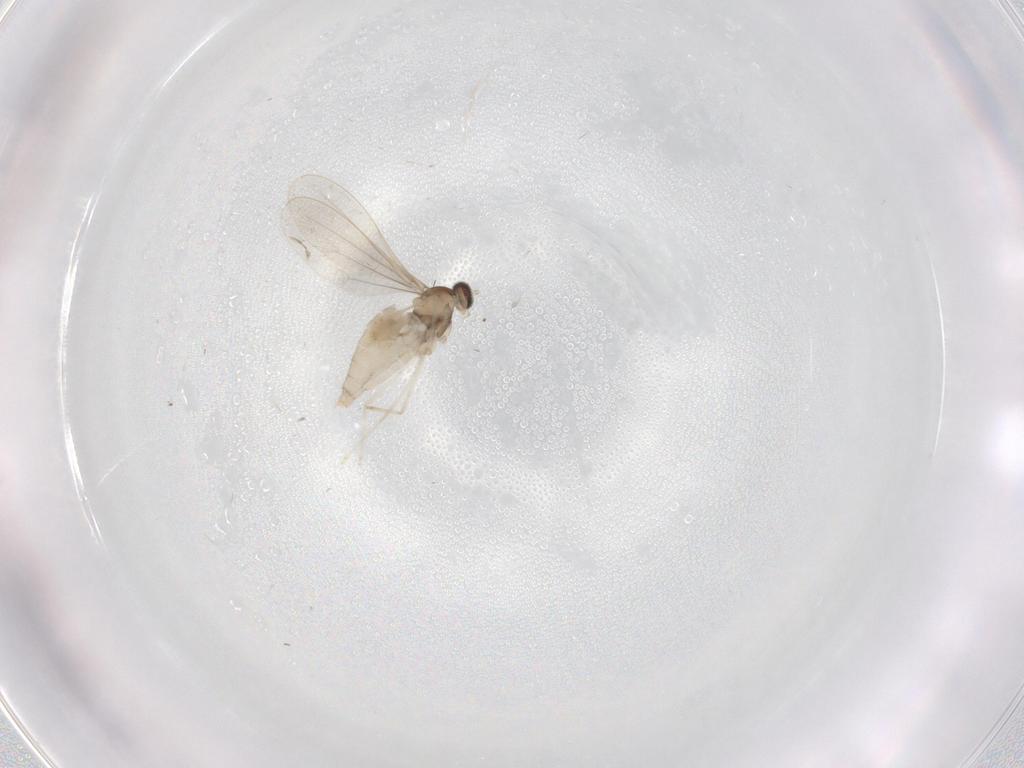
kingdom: Animalia
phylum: Arthropoda
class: Insecta
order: Diptera
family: Cecidomyiidae
